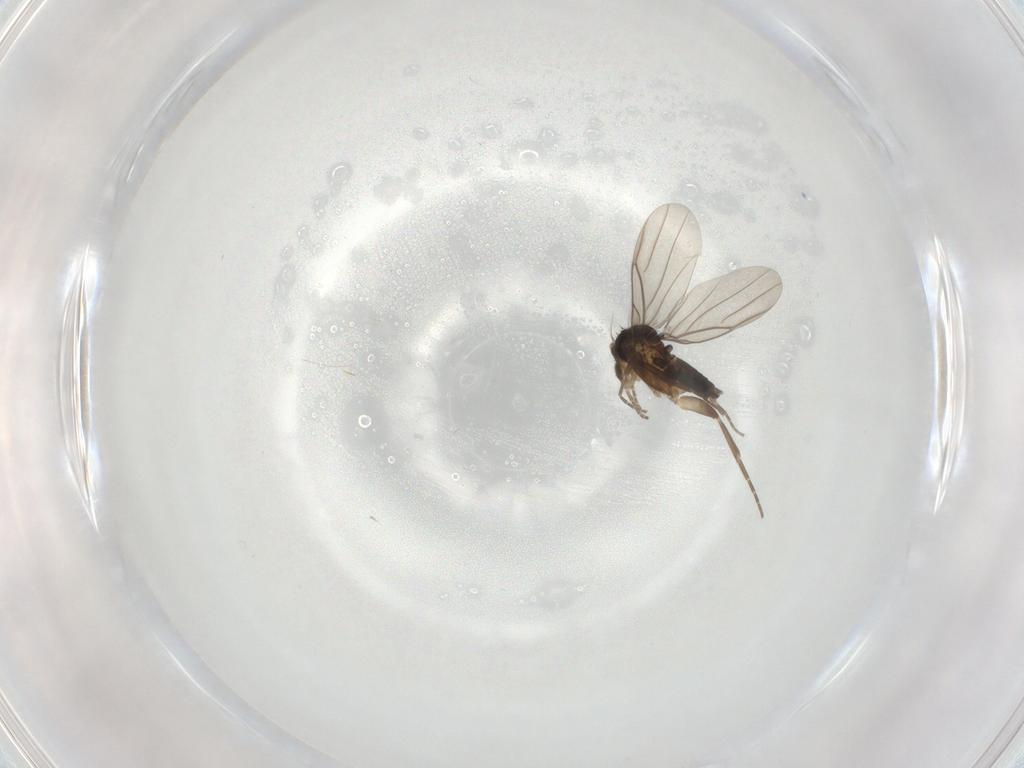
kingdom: Animalia
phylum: Arthropoda
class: Insecta
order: Diptera
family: Phoridae
